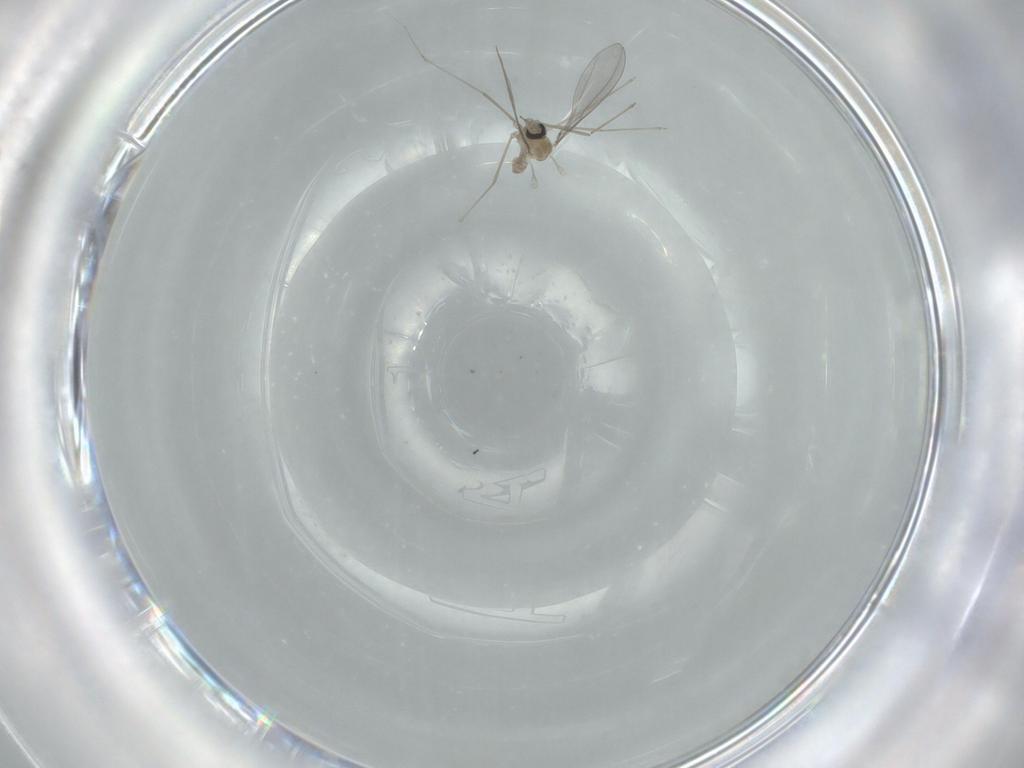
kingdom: Animalia
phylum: Arthropoda
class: Insecta
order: Diptera
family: Cecidomyiidae
